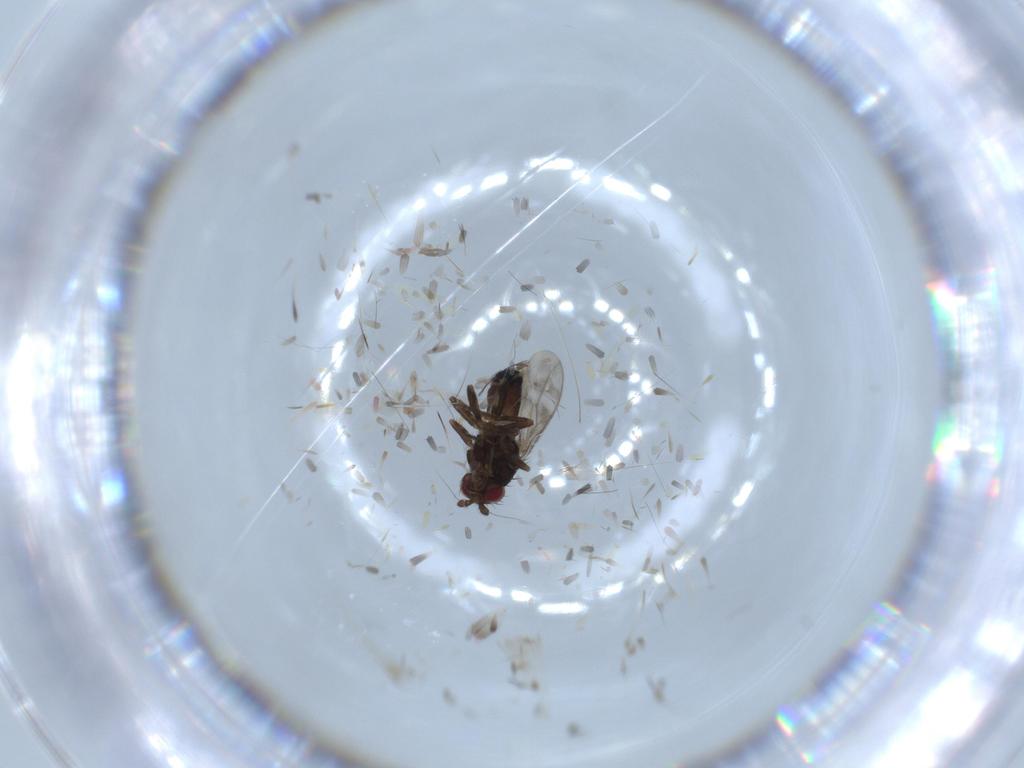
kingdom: Animalia
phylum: Arthropoda
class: Insecta
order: Diptera
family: Sphaeroceridae
